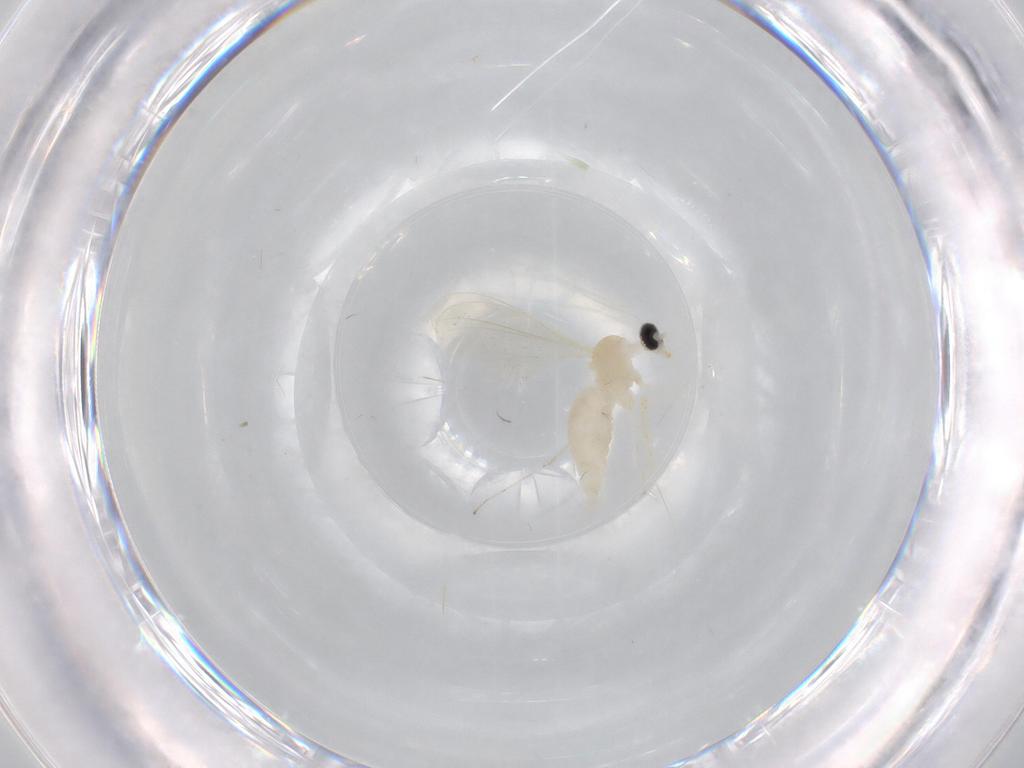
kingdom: Animalia
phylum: Arthropoda
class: Insecta
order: Diptera
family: Cecidomyiidae
